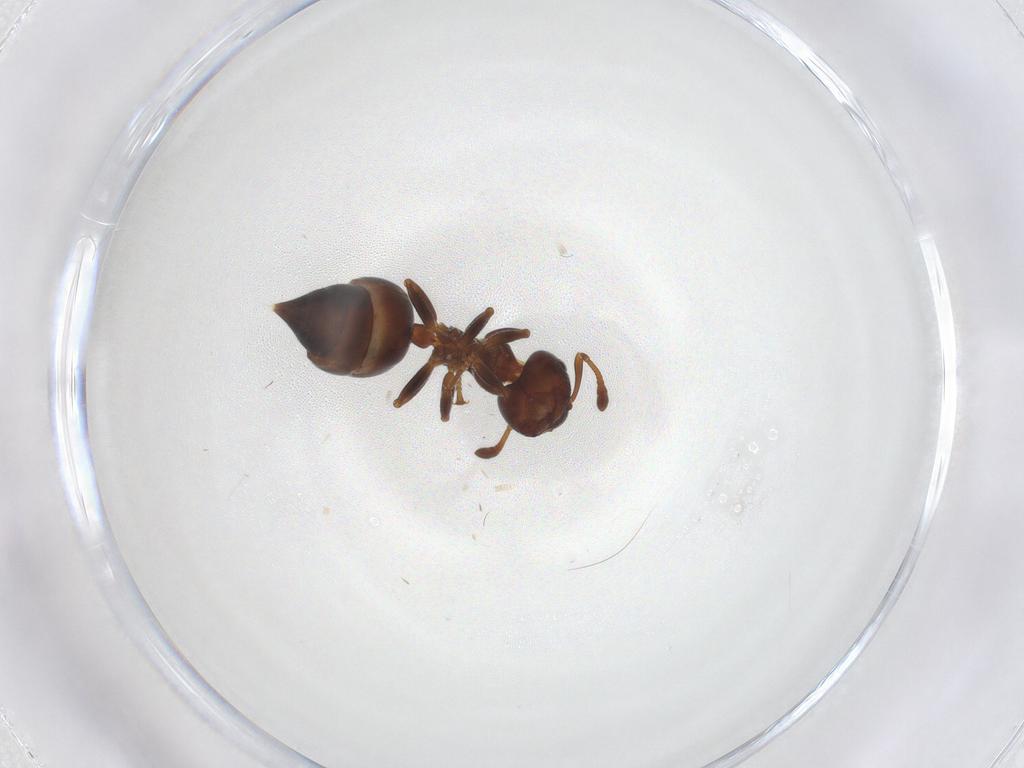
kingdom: Animalia
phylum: Arthropoda
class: Insecta
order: Hymenoptera
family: Formicidae
